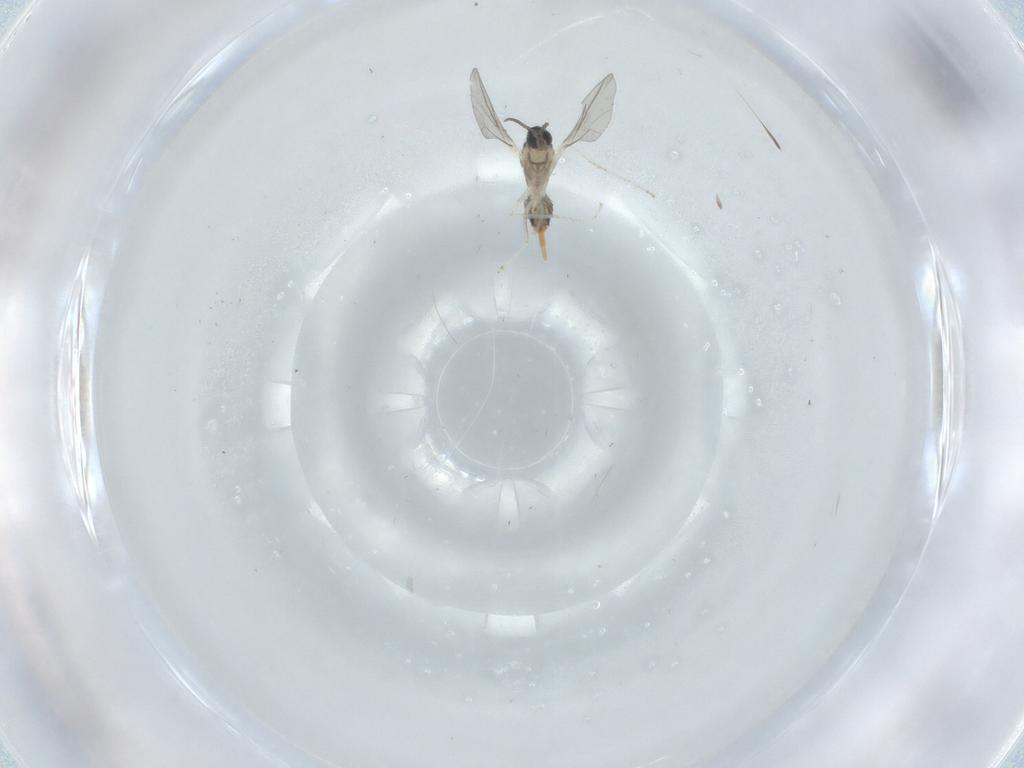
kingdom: Animalia
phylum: Arthropoda
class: Insecta
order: Diptera
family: Cecidomyiidae
